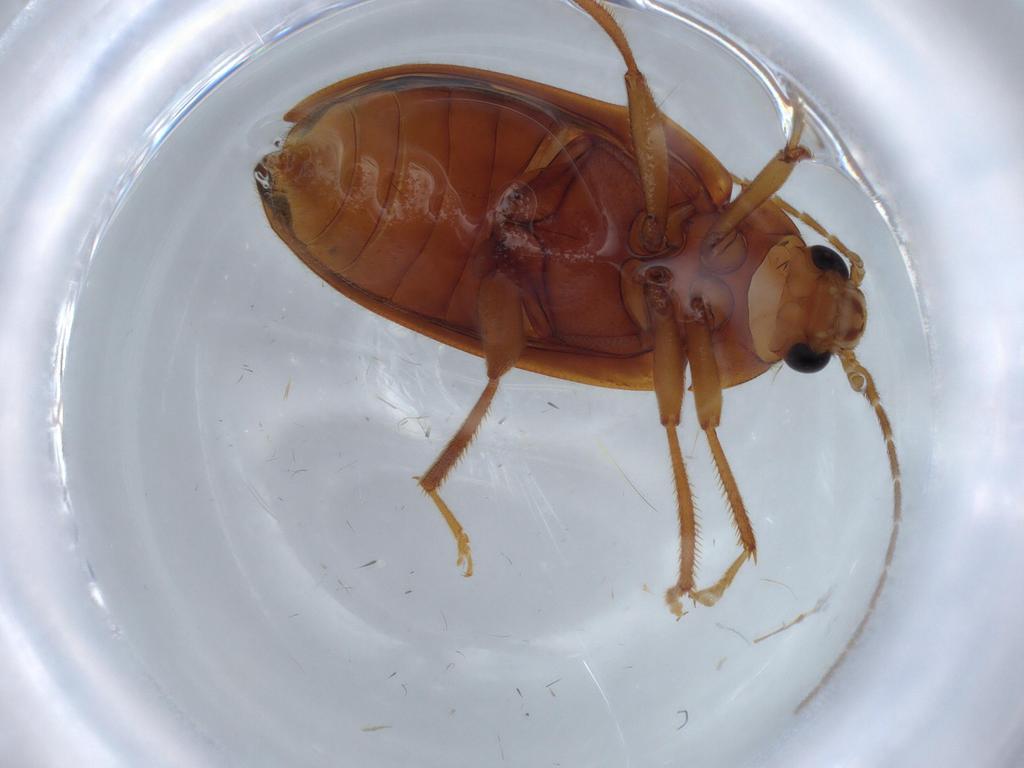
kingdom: Animalia
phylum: Arthropoda
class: Insecta
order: Coleoptera
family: Ptilodactylidae
